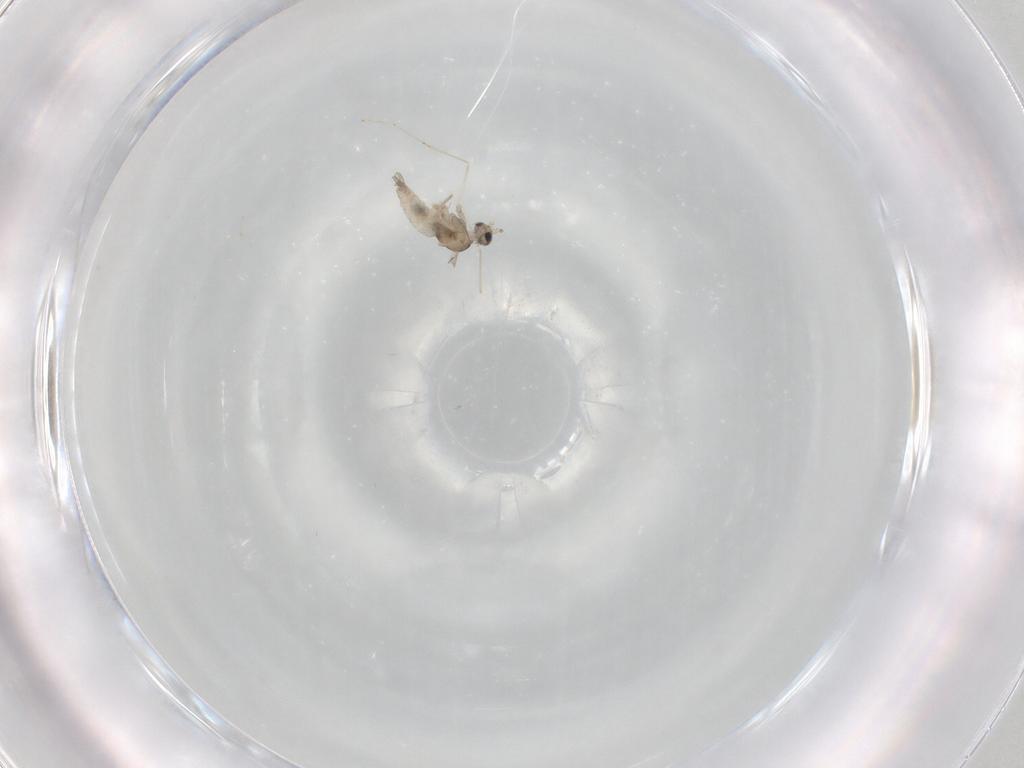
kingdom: Animalia
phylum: Arthropoda
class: Insecta
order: Diptera
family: Cecidomyiidae
